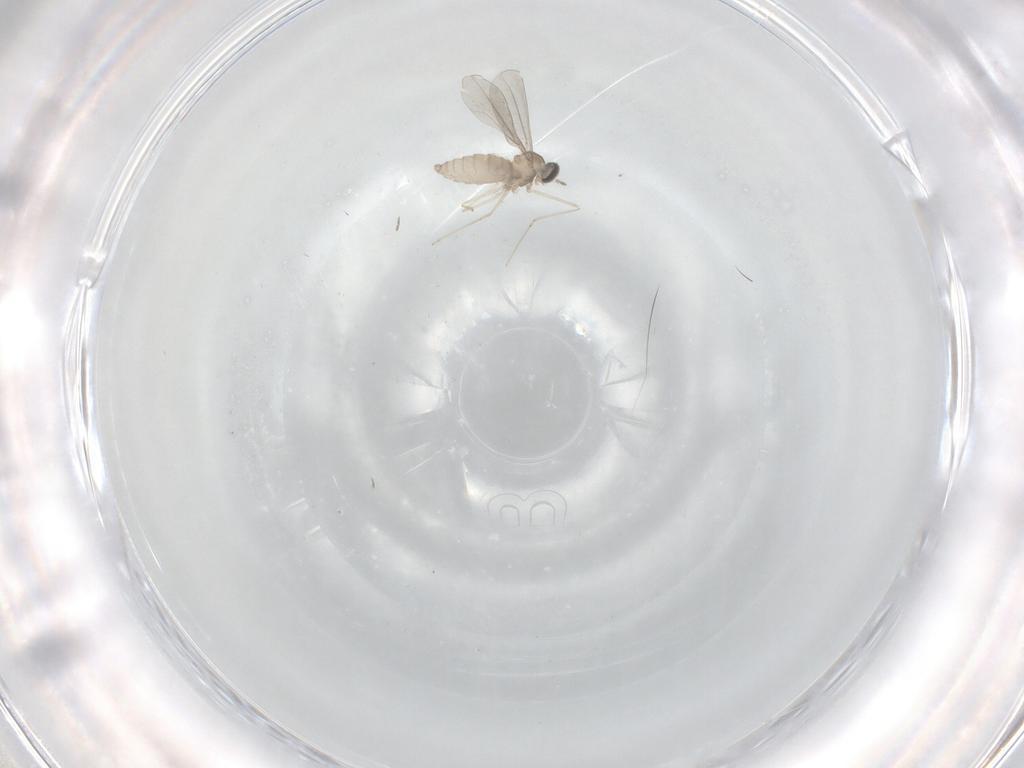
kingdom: Animalia
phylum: Arthropoda
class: Insecta
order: Diptera
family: Cecidomyiidae
